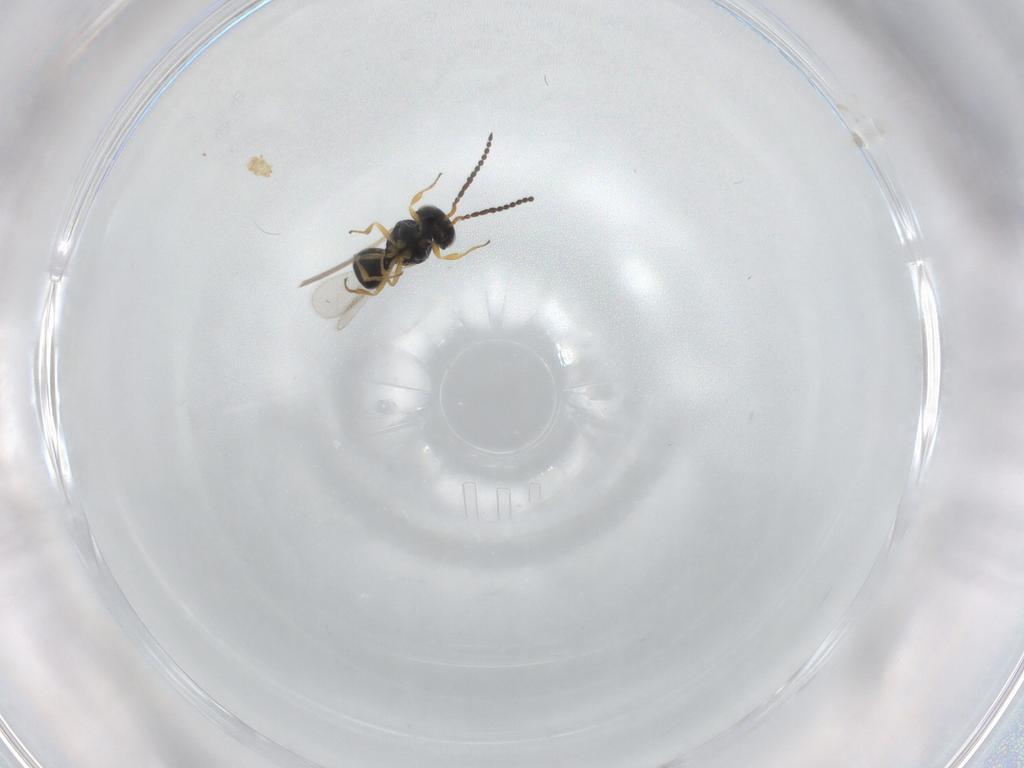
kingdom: Animalia
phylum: Arthropoda
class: Insecta
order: Hymenoptera
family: Scelionidae
